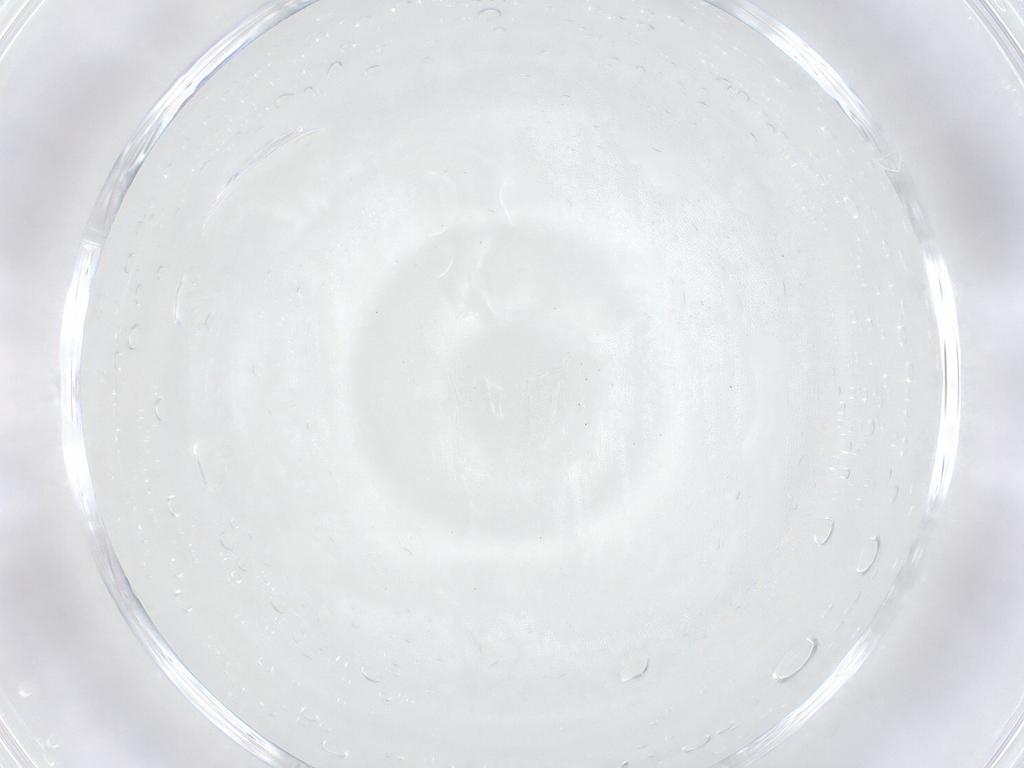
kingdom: Animalia
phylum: Arthropoda
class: Insecta
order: Diptera
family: Cecidomyiidae
